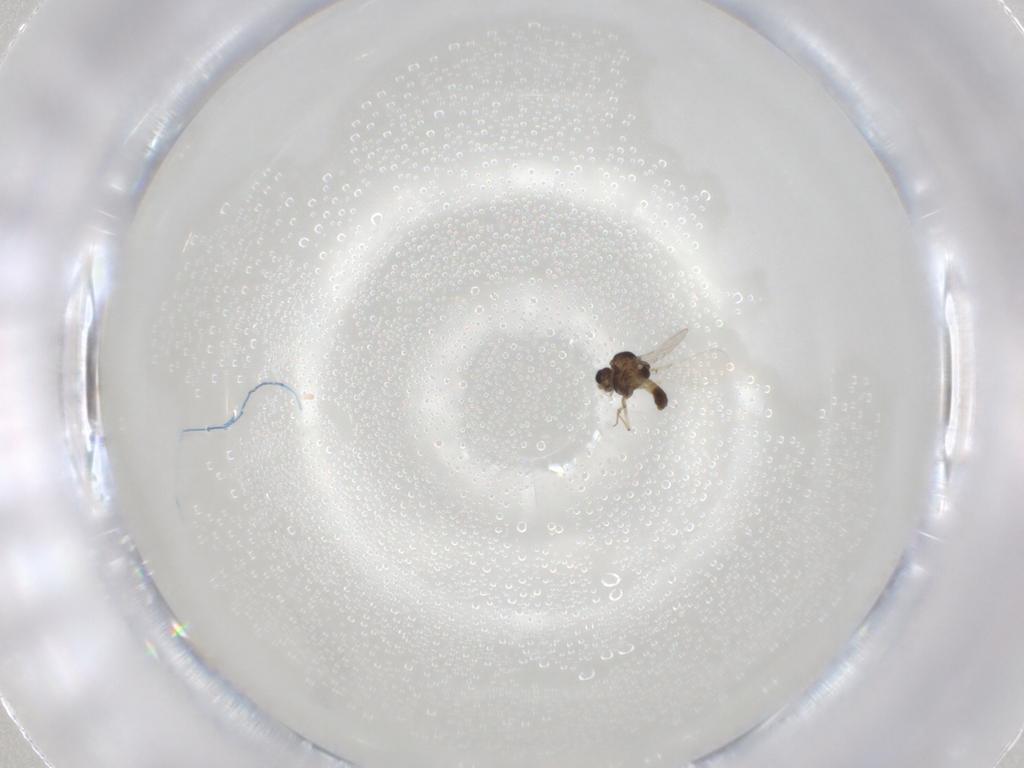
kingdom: Animalia
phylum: Arthropoda
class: Insecta
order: Diptera
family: Chironomidae
